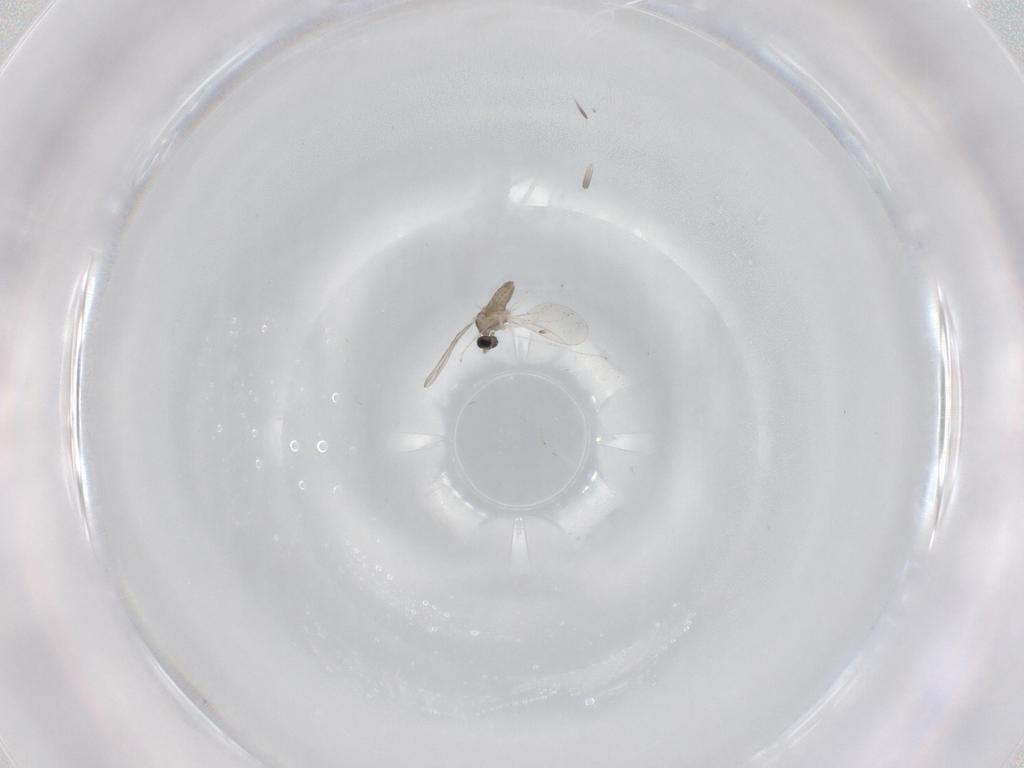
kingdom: Animalia
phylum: Arthropoda
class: Insecta
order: Diptera
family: Cecidomyiidae
